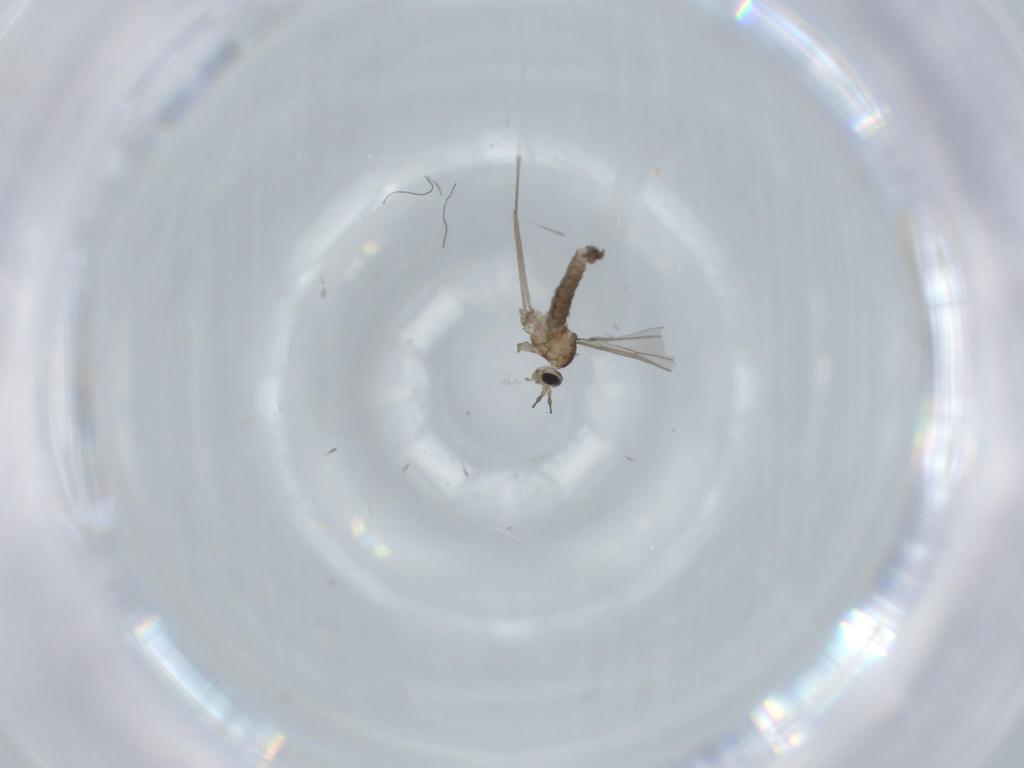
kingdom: Animalia
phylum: Arthropoda
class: Insecta
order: Diptera
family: Cecidomyiidae
